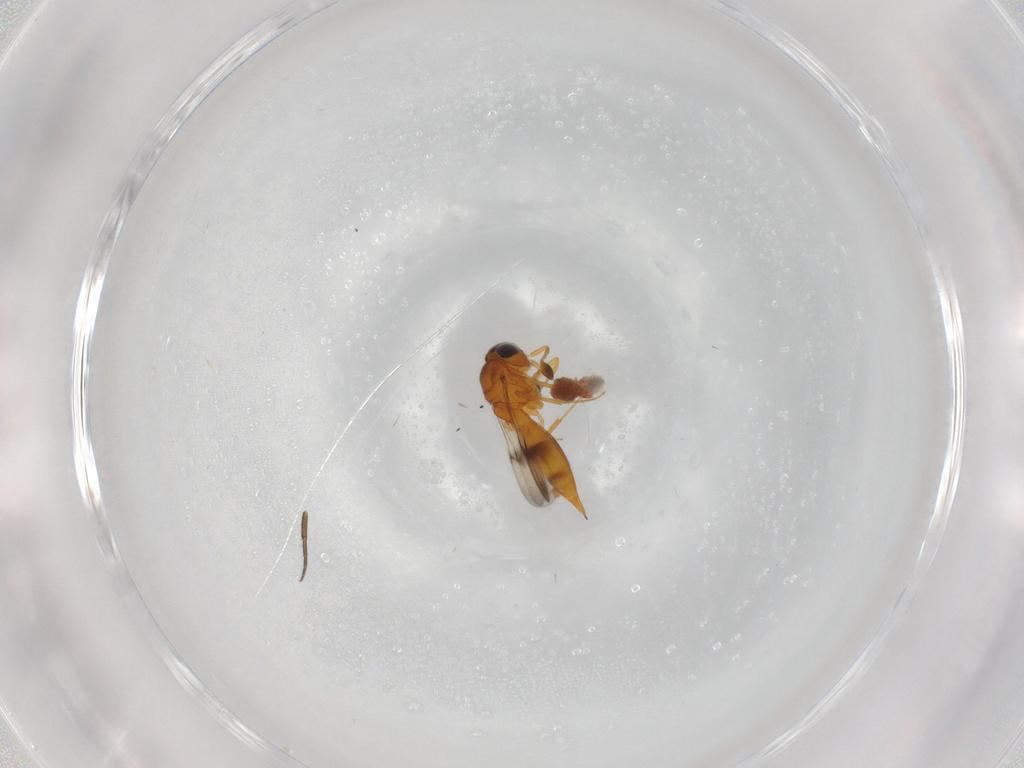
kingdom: Animalia
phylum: Arthropoda
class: Insecta
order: Hymenoptera
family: Scelionidae
